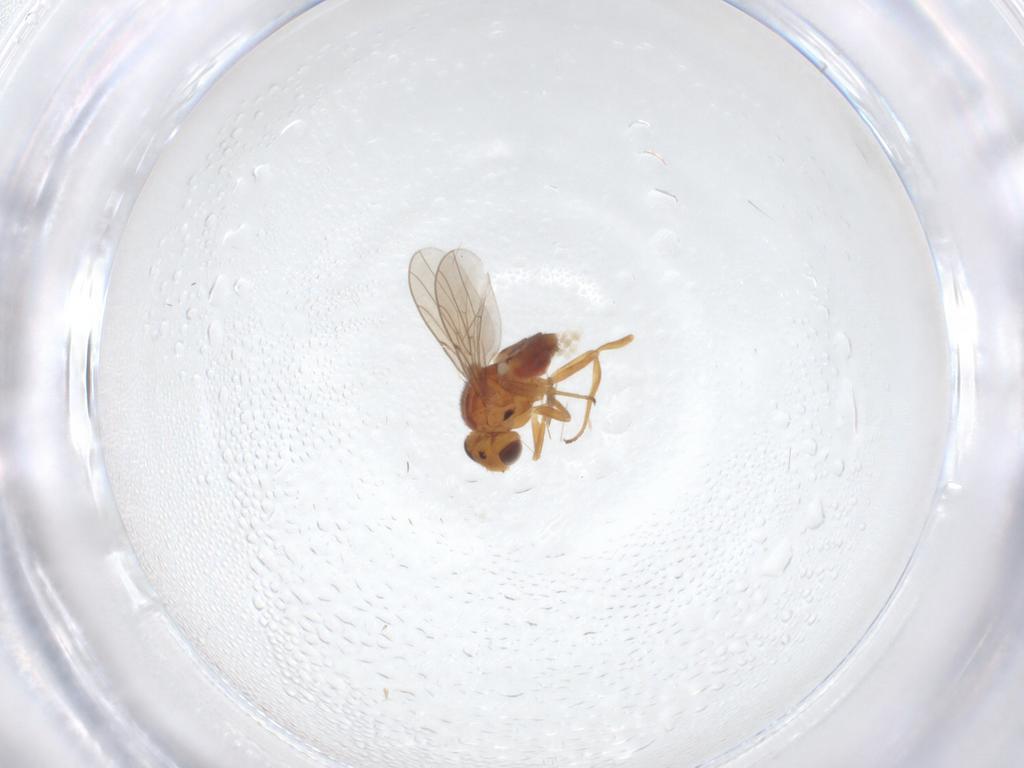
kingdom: Animalia
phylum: Arthropoda
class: Insecta
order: Diptera
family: Chloropidae
